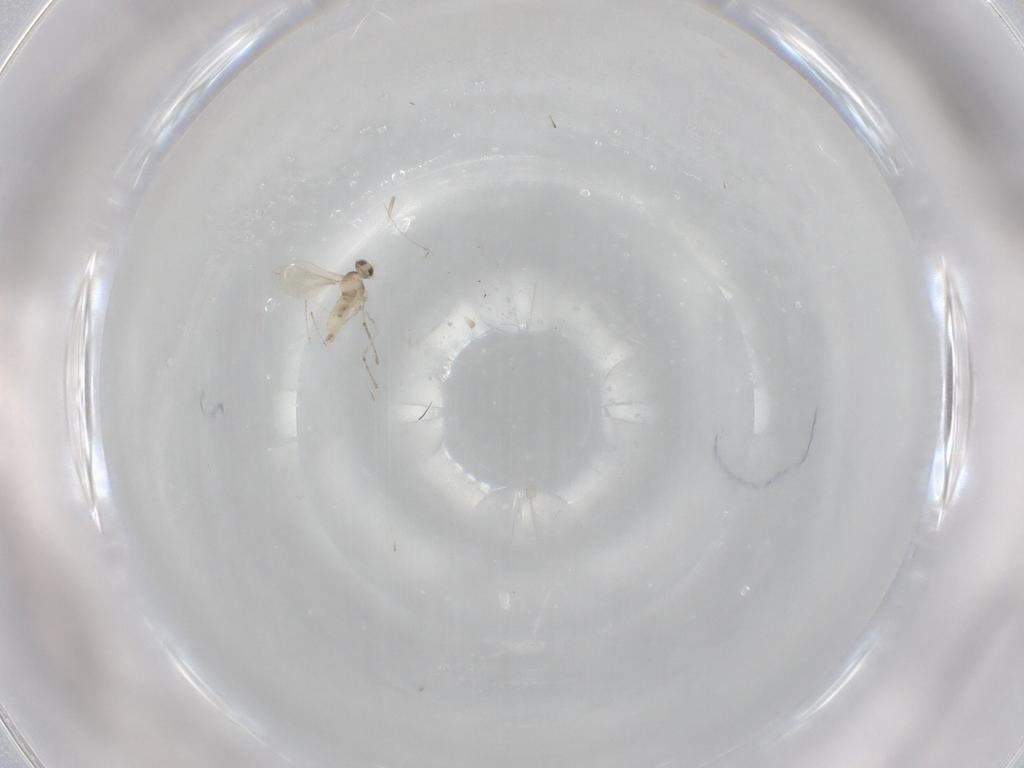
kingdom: Animalia
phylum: Arthropoda
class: Insecta
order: Diptera
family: Cecidomyiidae
